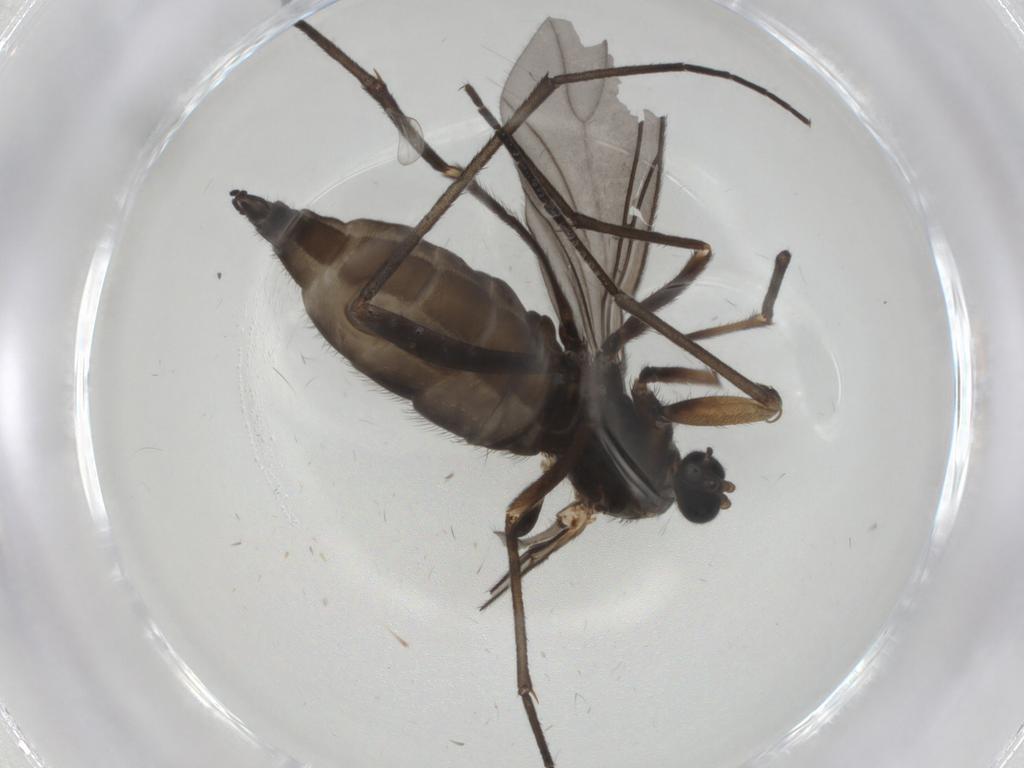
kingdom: Animalia
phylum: Arthropoda
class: Insecta
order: Diptera
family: Sciaridae
